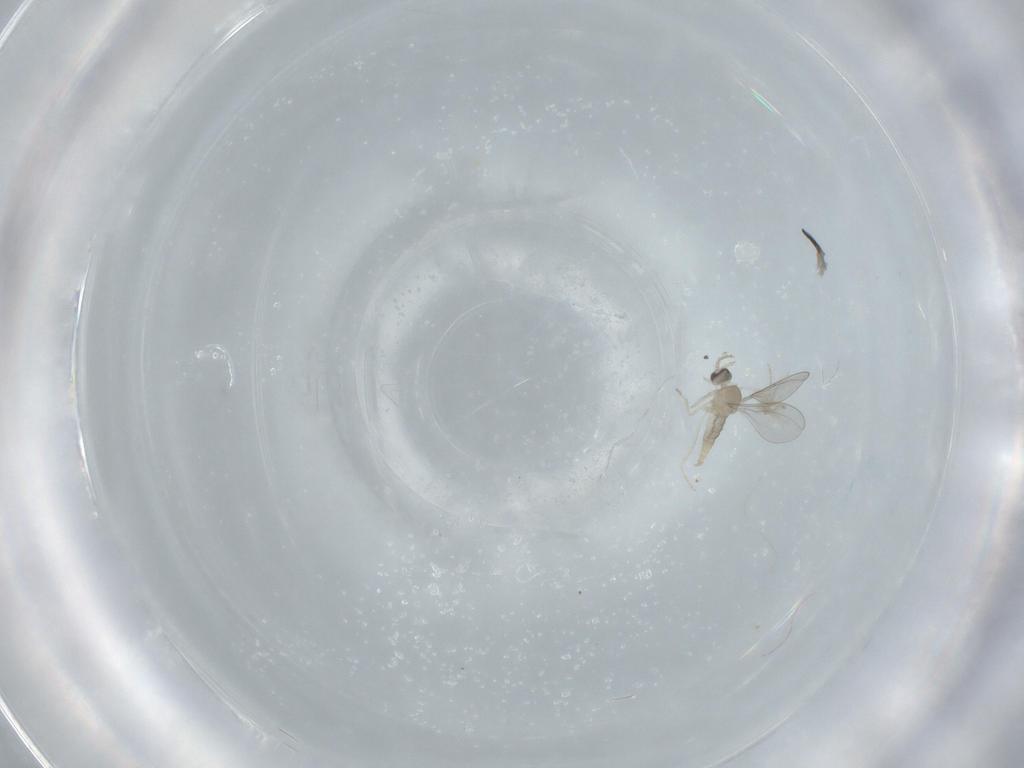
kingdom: Animalia
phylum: Arthropoda
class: Insecta
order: Diptera
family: Cecidomyiidae
